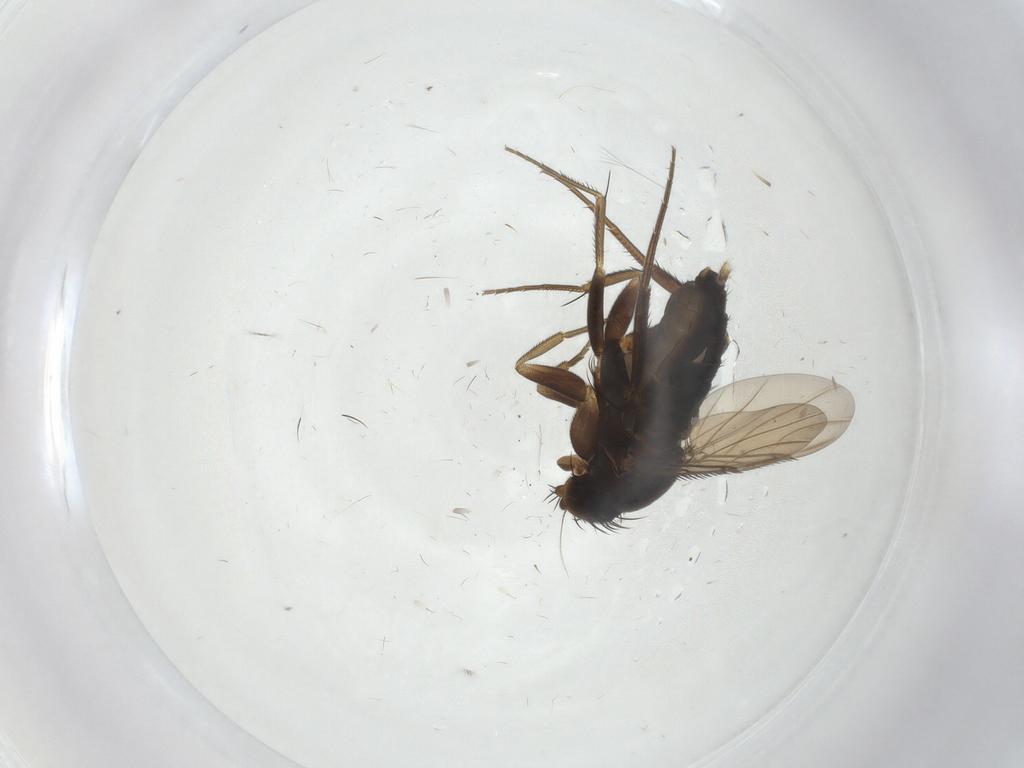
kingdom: Animalia
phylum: Arthropoda
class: Insecta
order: Diptera
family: Phoridae
